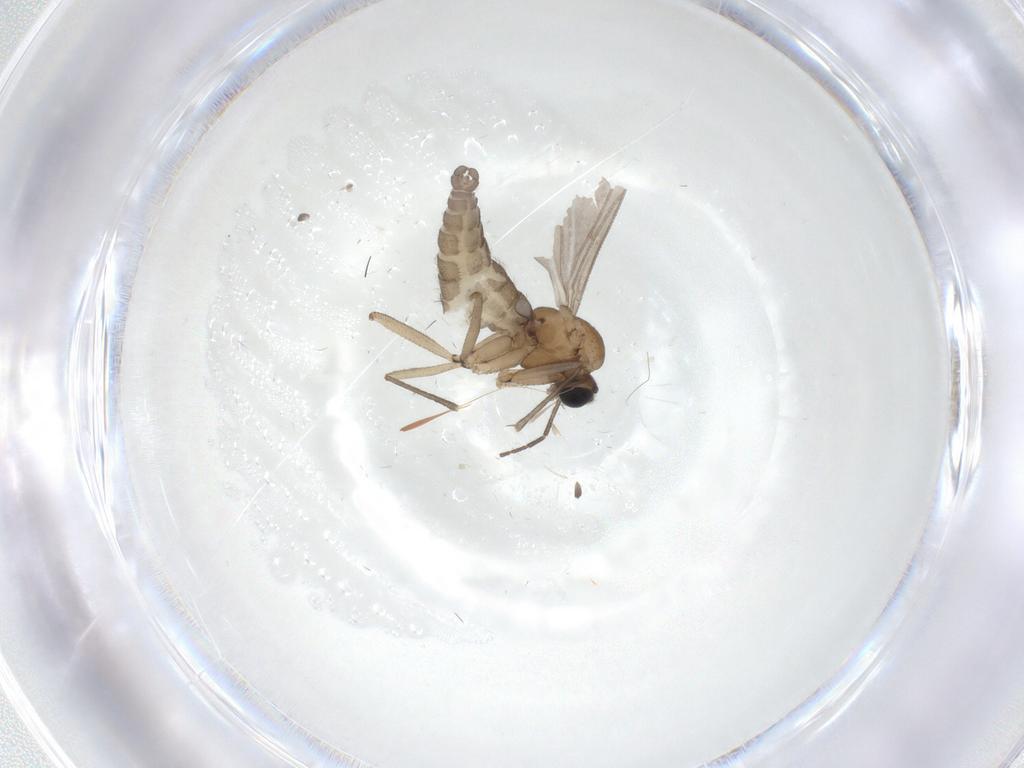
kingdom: Animalia
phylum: Arthropoda
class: Insecta
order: Diptera
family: Sciaridae
